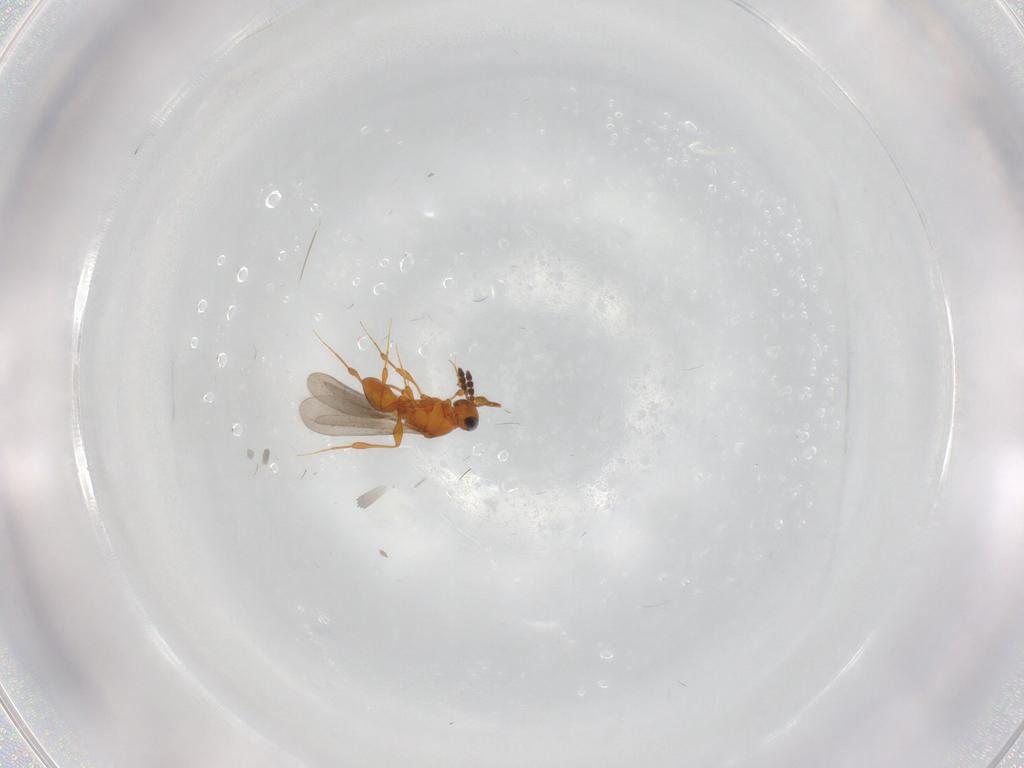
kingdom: Animalia
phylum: Arthropoda
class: Insecta
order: Hymenoptera
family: Platygastridae
